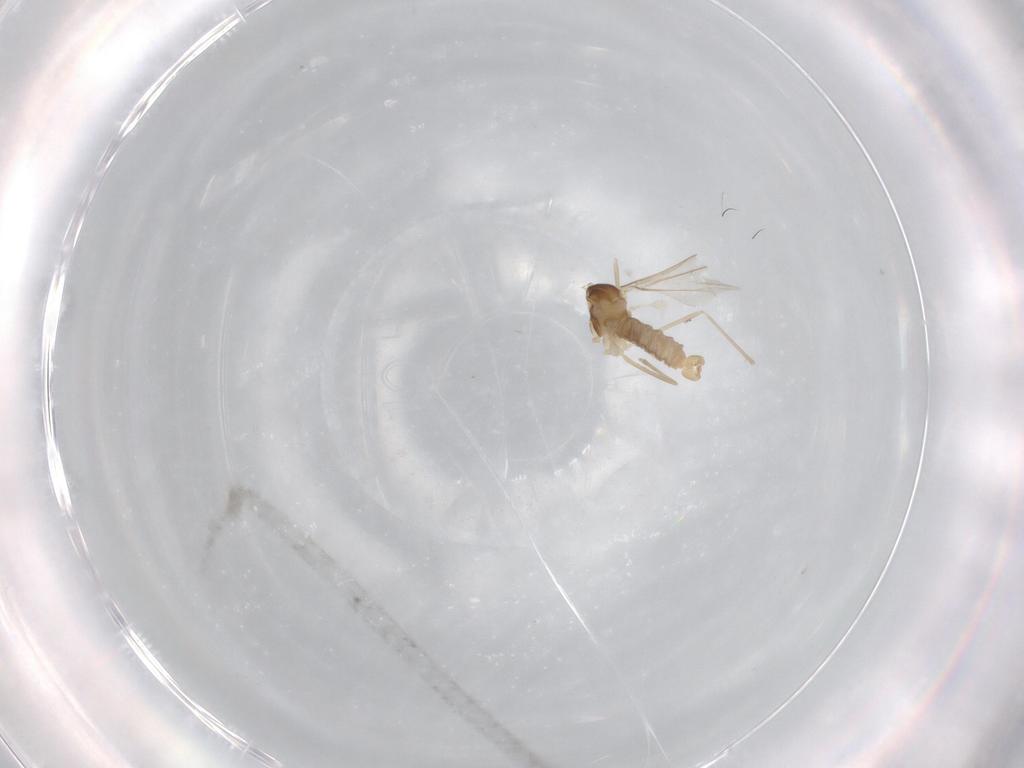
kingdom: Animalia
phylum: Arthropoda
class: Insecta
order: Diptera
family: Cecidomyiidae
